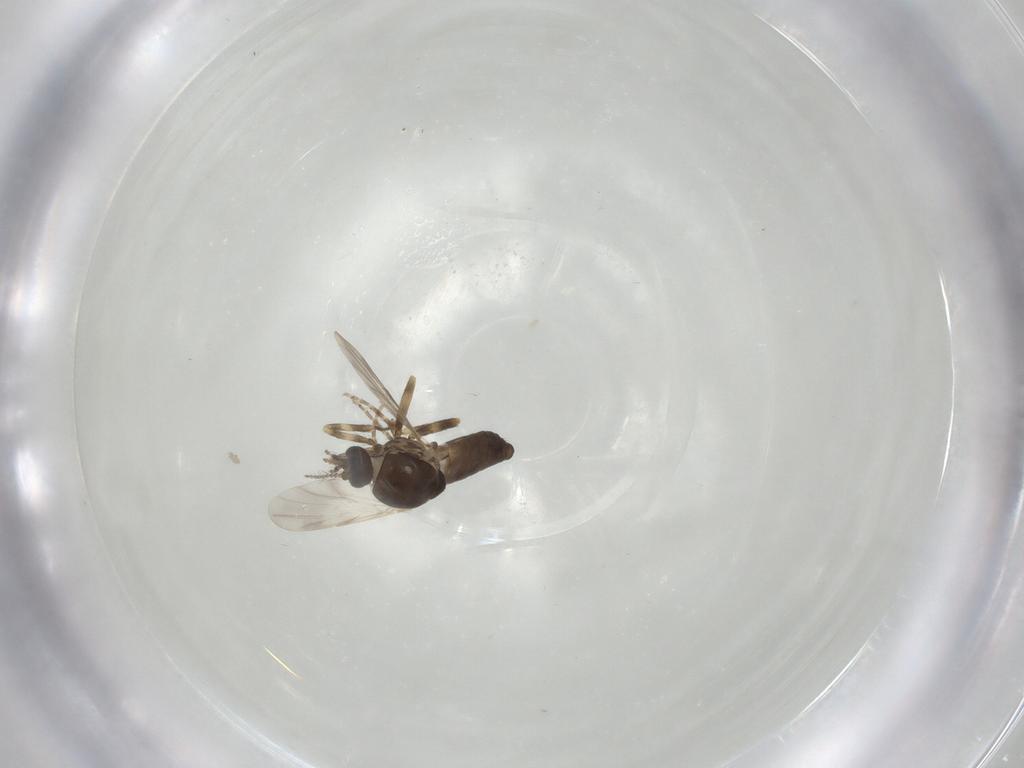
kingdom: Animalia
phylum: Arthropoda
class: Insecta
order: Diptera
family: Ceratopogonidae
